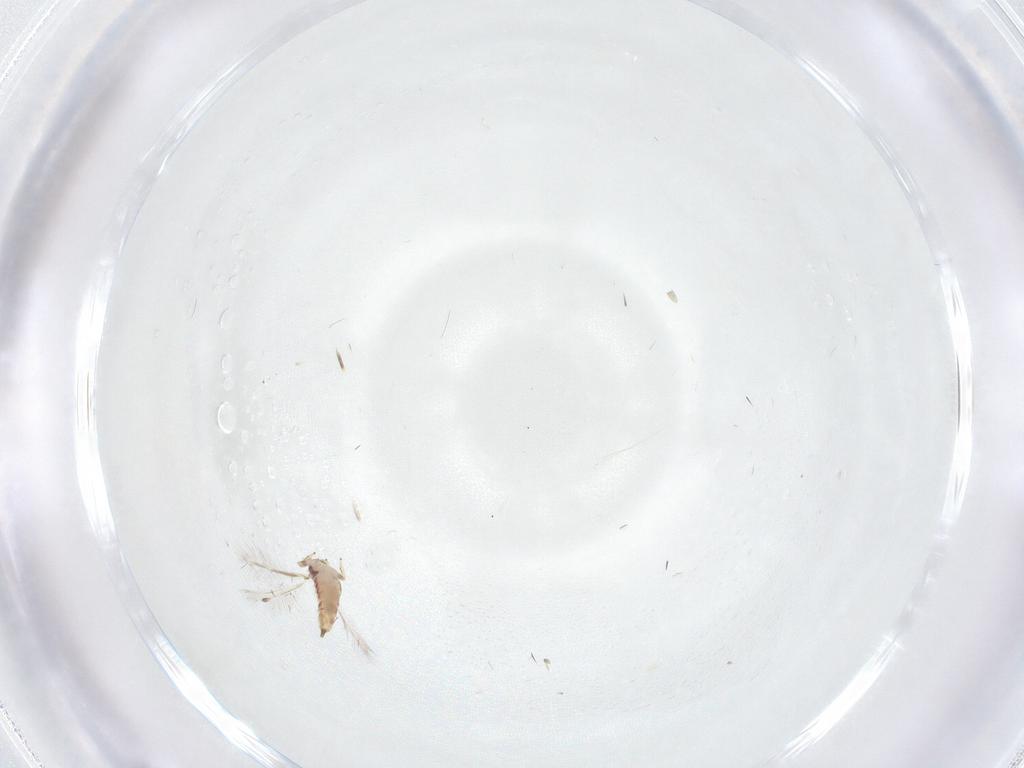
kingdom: Animalia
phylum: Arthropoda
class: Insecta
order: Thysanoptera
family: Phlaeothripidae
